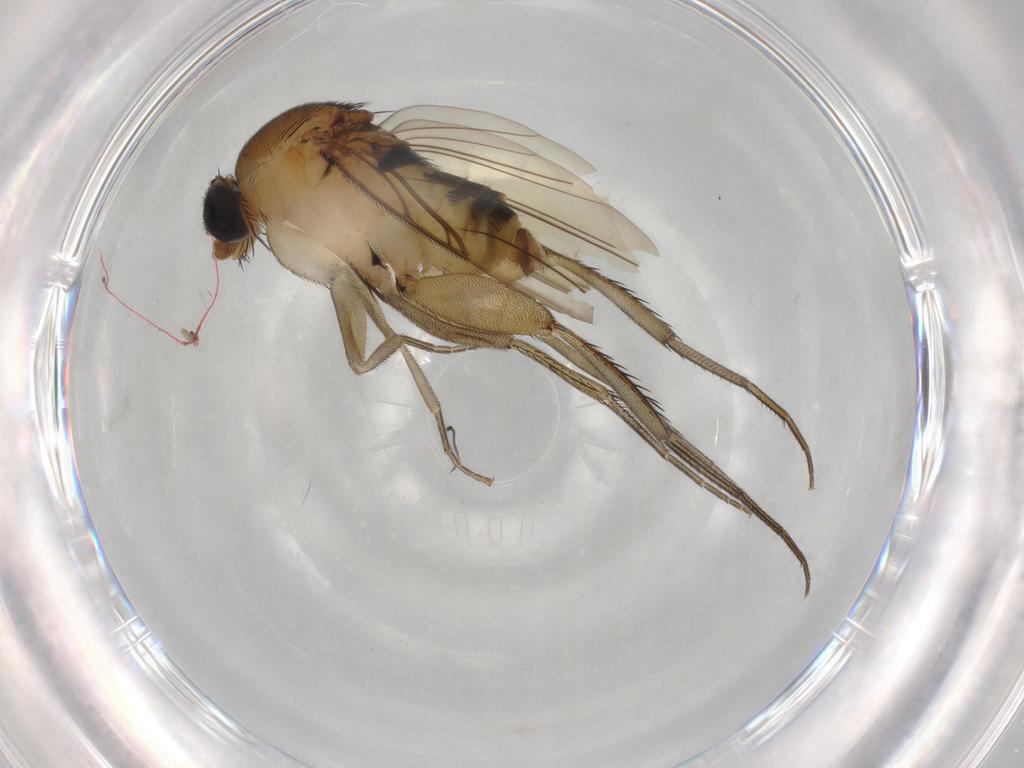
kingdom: Animalia
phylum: Arthropoda
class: Insecta
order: Diptera
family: Phoridae
